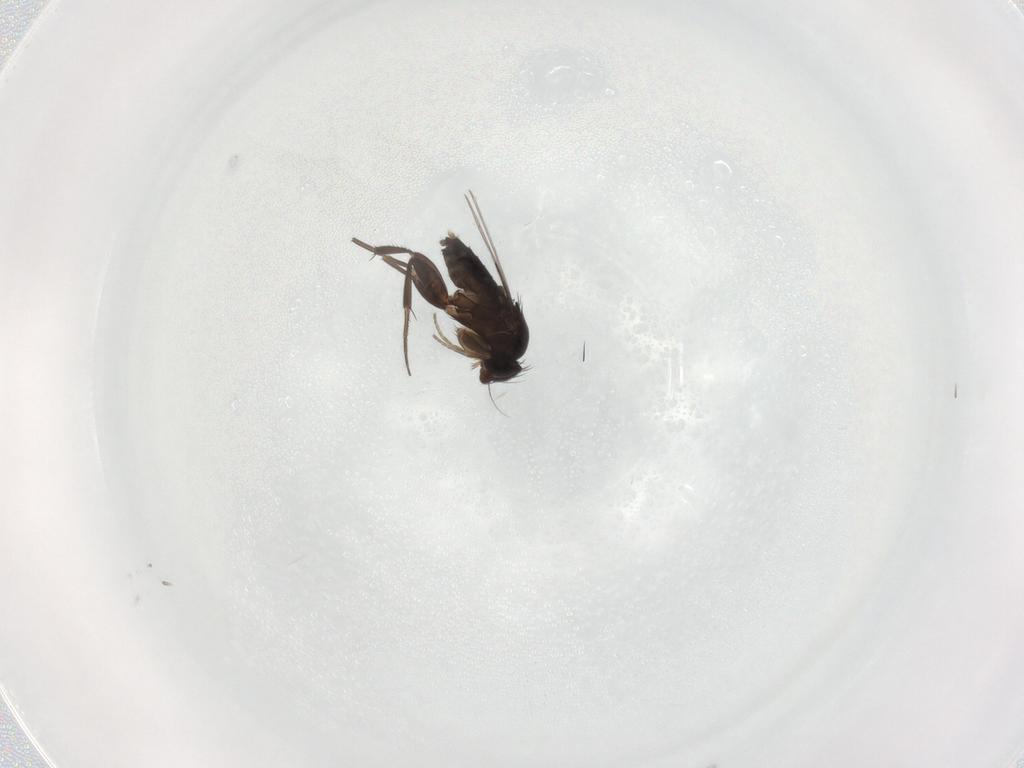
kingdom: Animalia
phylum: Arthropoda
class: Insecta
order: Diptera
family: Phoridae
